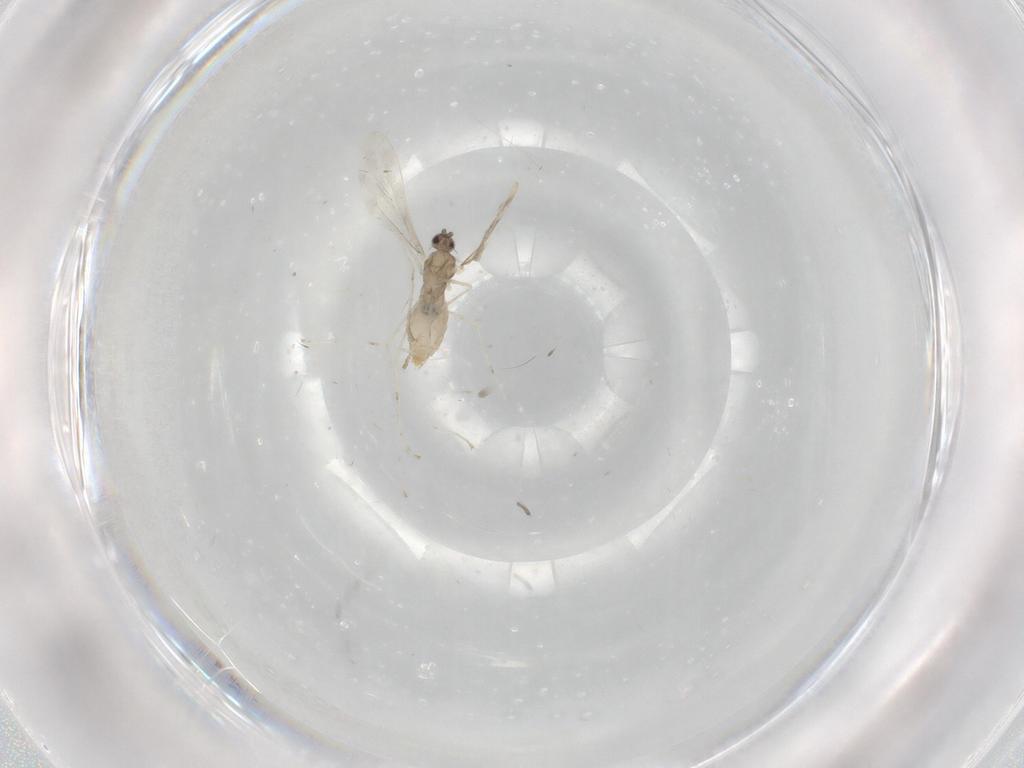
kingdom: Animalia
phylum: Arthropoda
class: Insecta
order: Diptera
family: Cecidomyiidae
